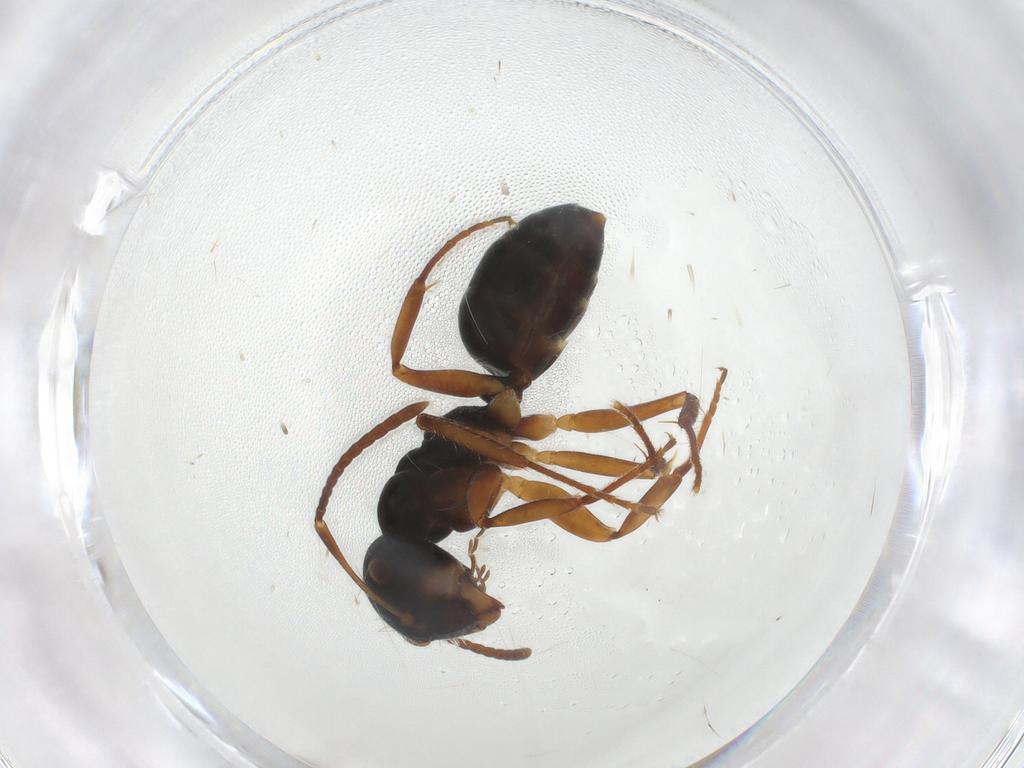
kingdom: Animalia
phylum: Arthropoda
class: Insecta
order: Hymenoptera
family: Formicidae
